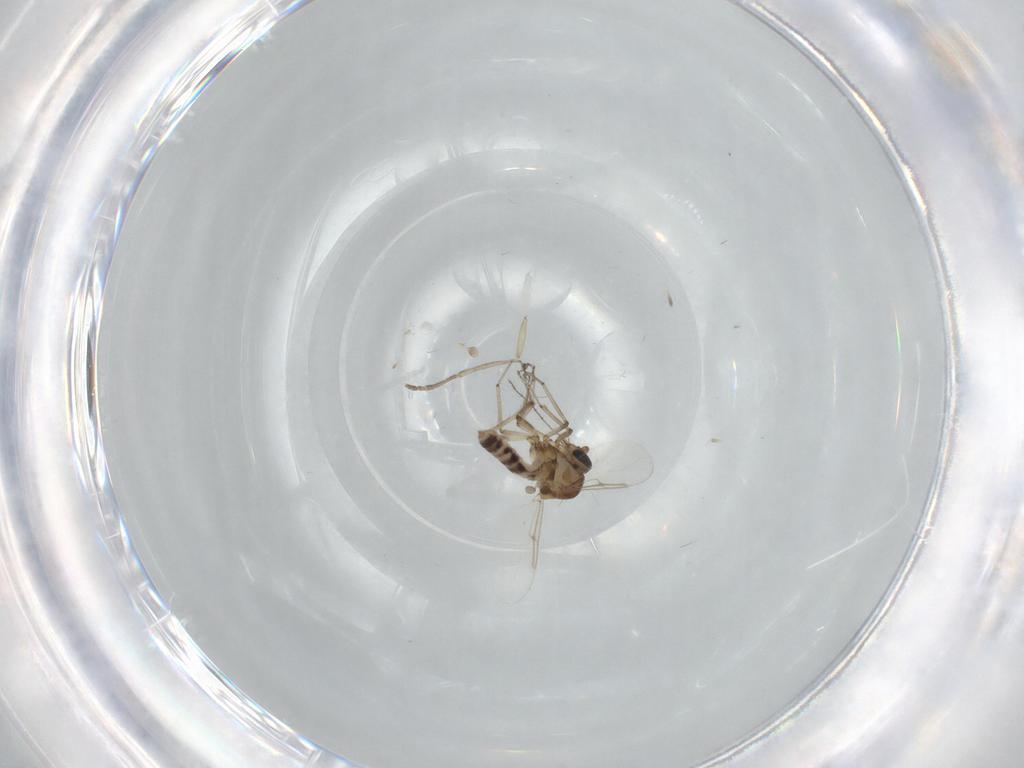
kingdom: Animalia
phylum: Arthropoda
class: Insecta
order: Diptera
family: Ceratopogonidae
